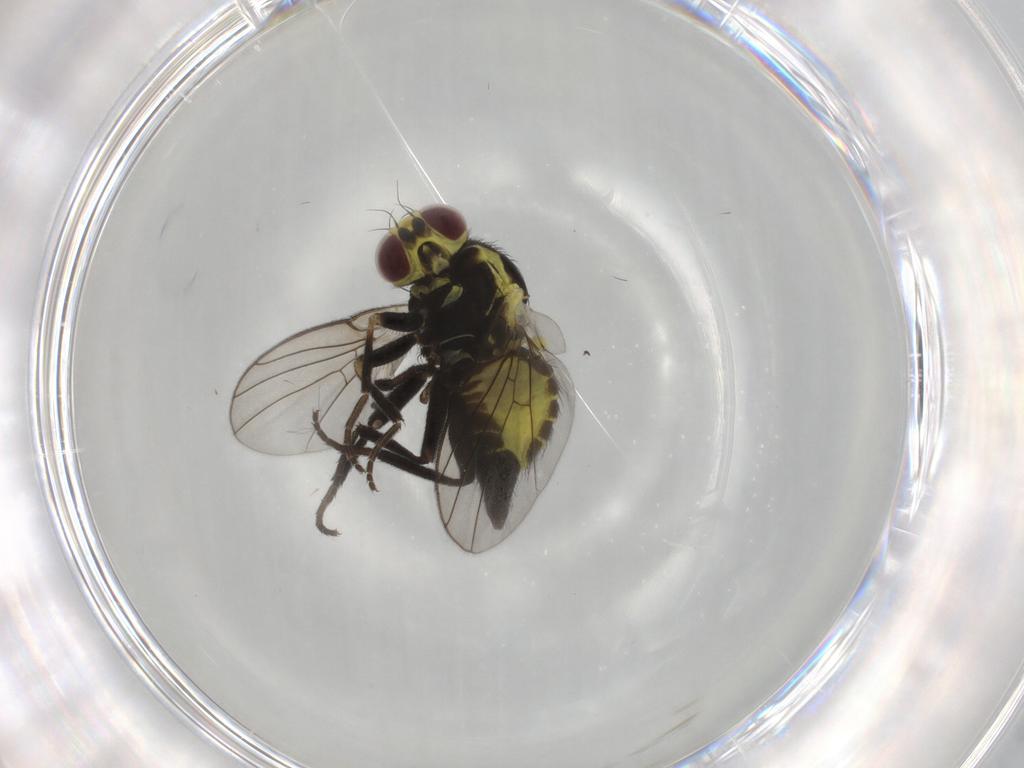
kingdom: Animalia
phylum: Arthropoda
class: Insecta
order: Diptera
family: Agromyzidae
